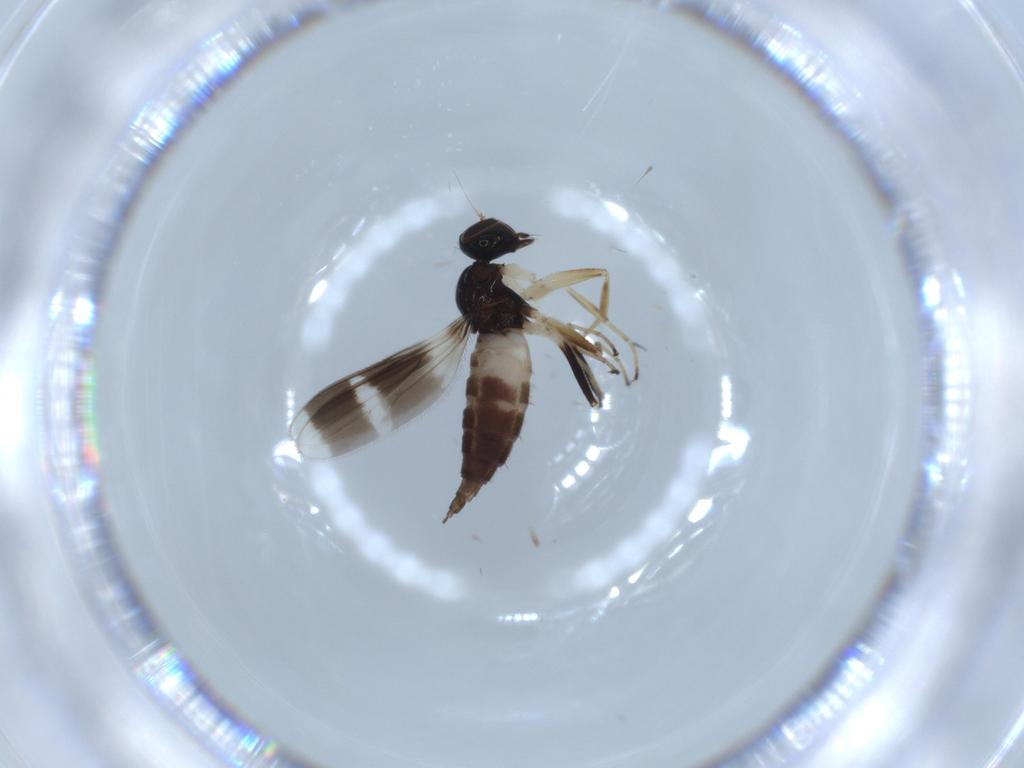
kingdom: Animalia
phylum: Arthropoda
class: Insecta
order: Diptera
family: Hybotidae
